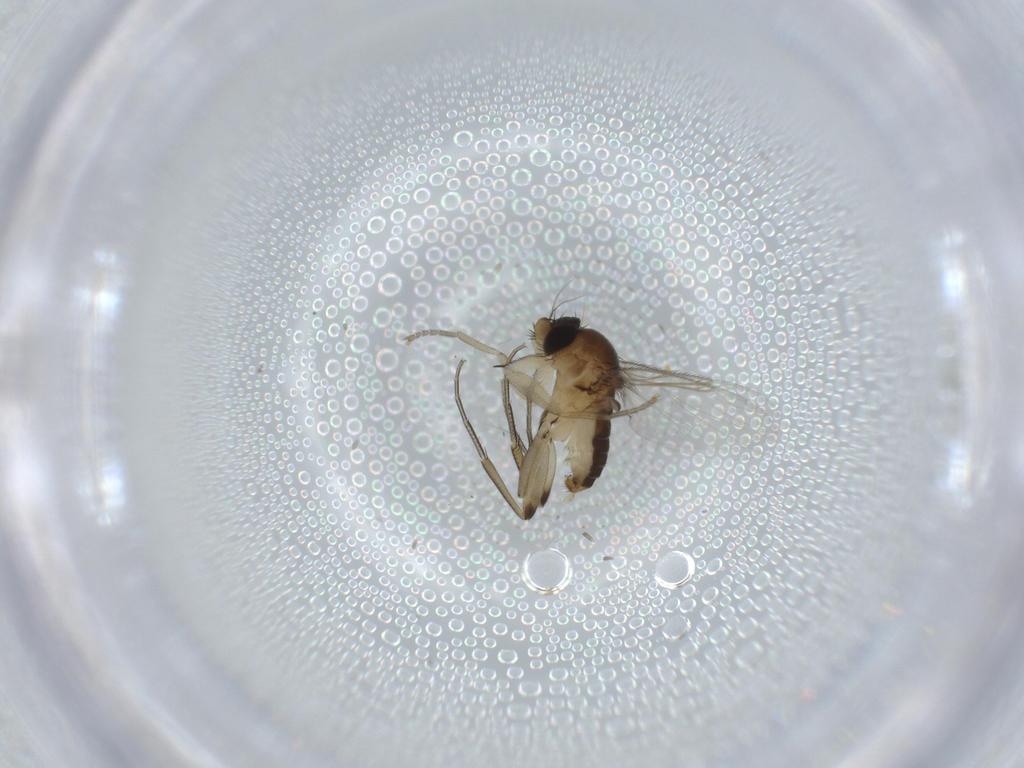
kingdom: Animalia
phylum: Arthropoda
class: Insecta
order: Diptera
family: Phoridae
